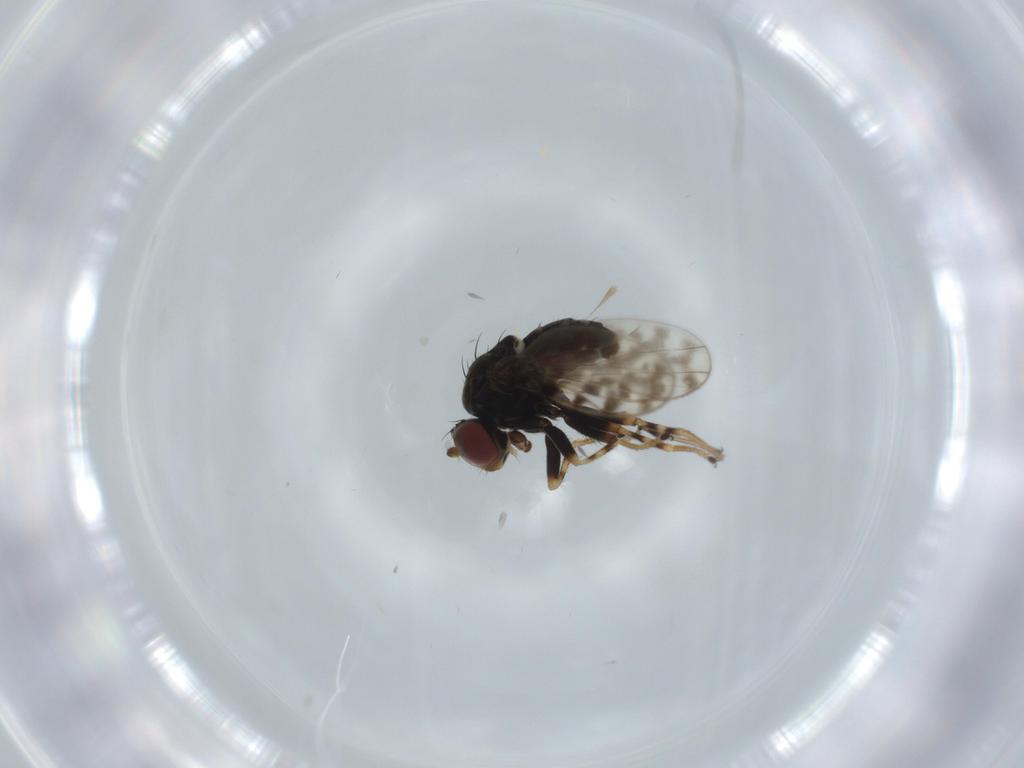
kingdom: Animalia
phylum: Arthropoda
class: Insecta
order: Diptera
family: Ephydridae
